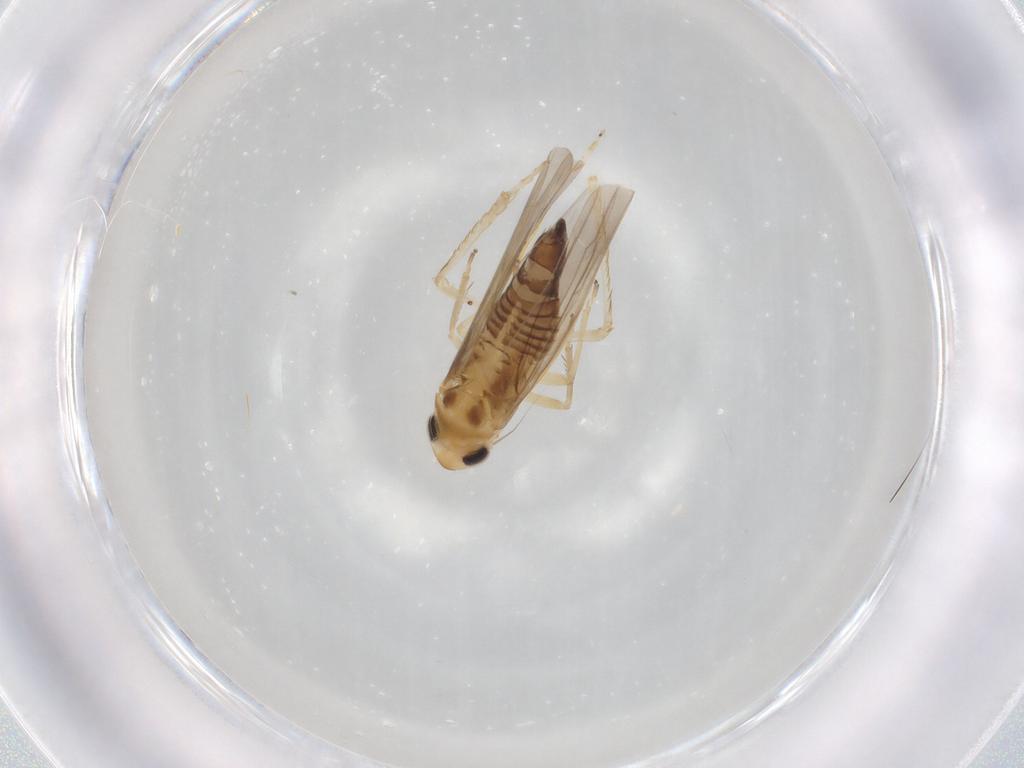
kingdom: Animalia
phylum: Arthropoda
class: Insecta
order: Hemiptera
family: Cicadellidae
